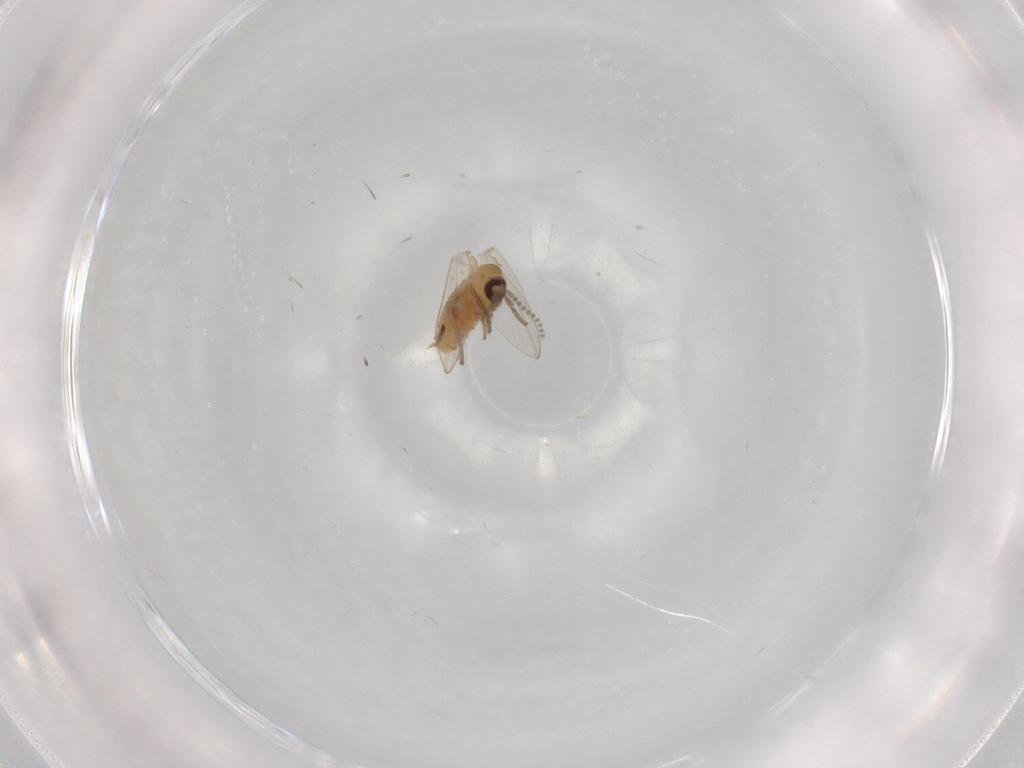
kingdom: Animalia
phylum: Arthropoda
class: Insecta
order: Diptera
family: Psychodidae
